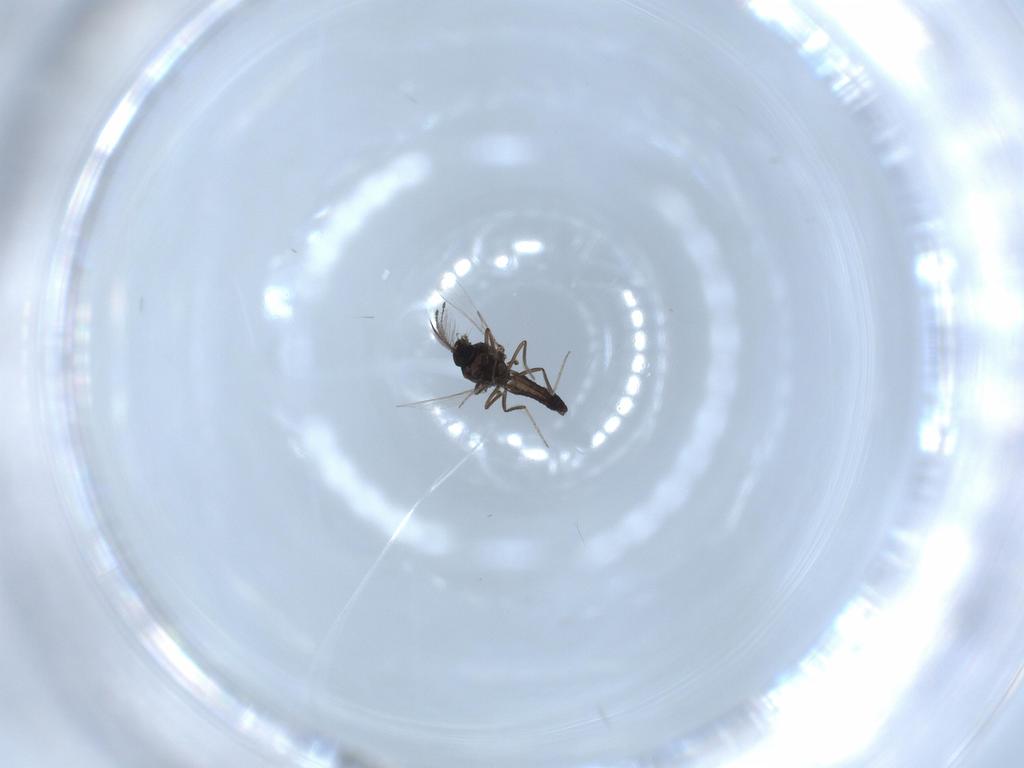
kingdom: Animalia
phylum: Arthropoda
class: Insecta
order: Diptera
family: Ceratopogonidae
